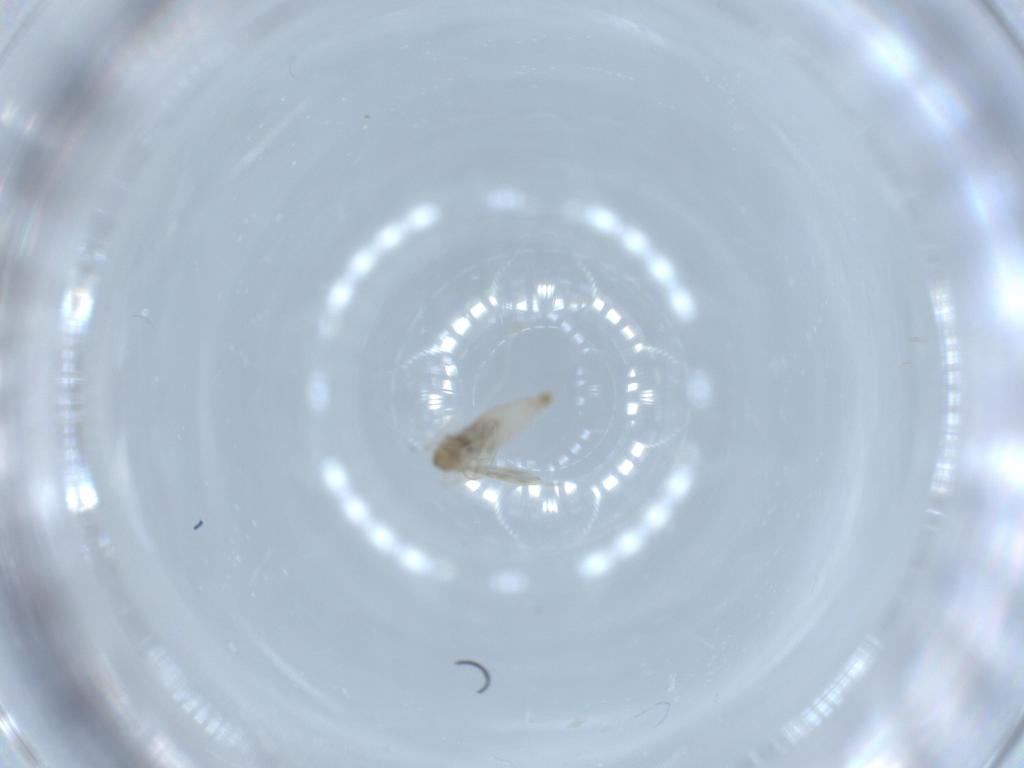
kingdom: Animalia
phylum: Arthropoda
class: Insecta
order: Diptera
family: Cecidomyiidae
